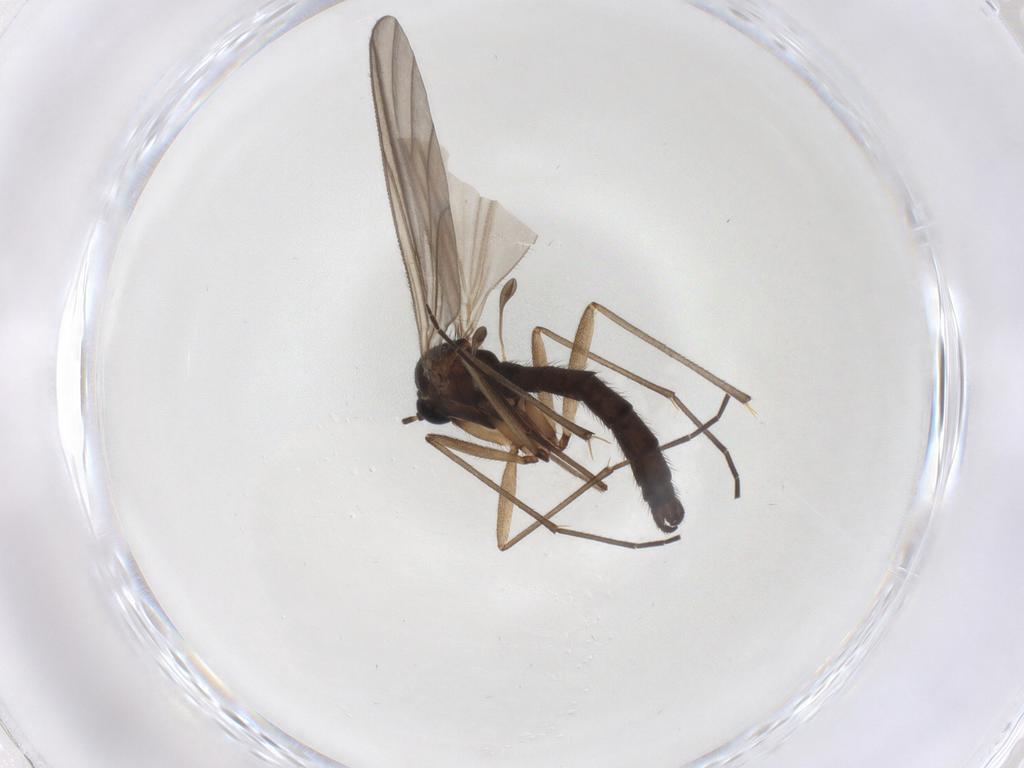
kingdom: Animalia
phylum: Arthropoda
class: Insecta
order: Diptera
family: Sciaridae
